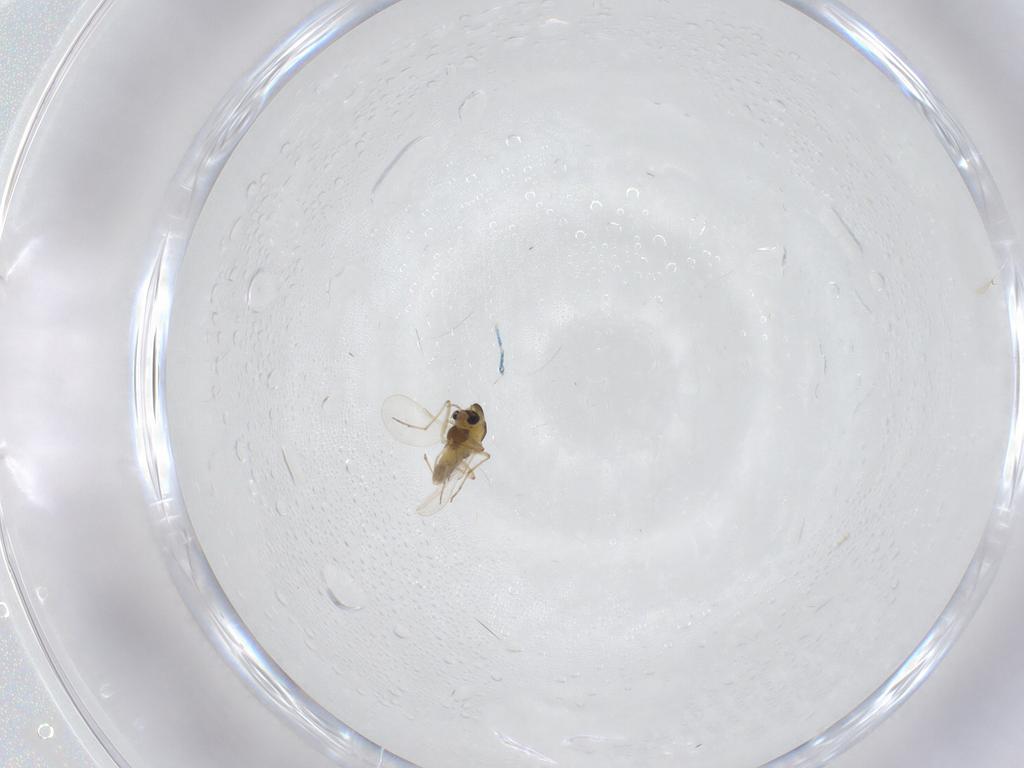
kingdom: Animalia
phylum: Arthropoda
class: Insecta
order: Diptera
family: Chironomidae
